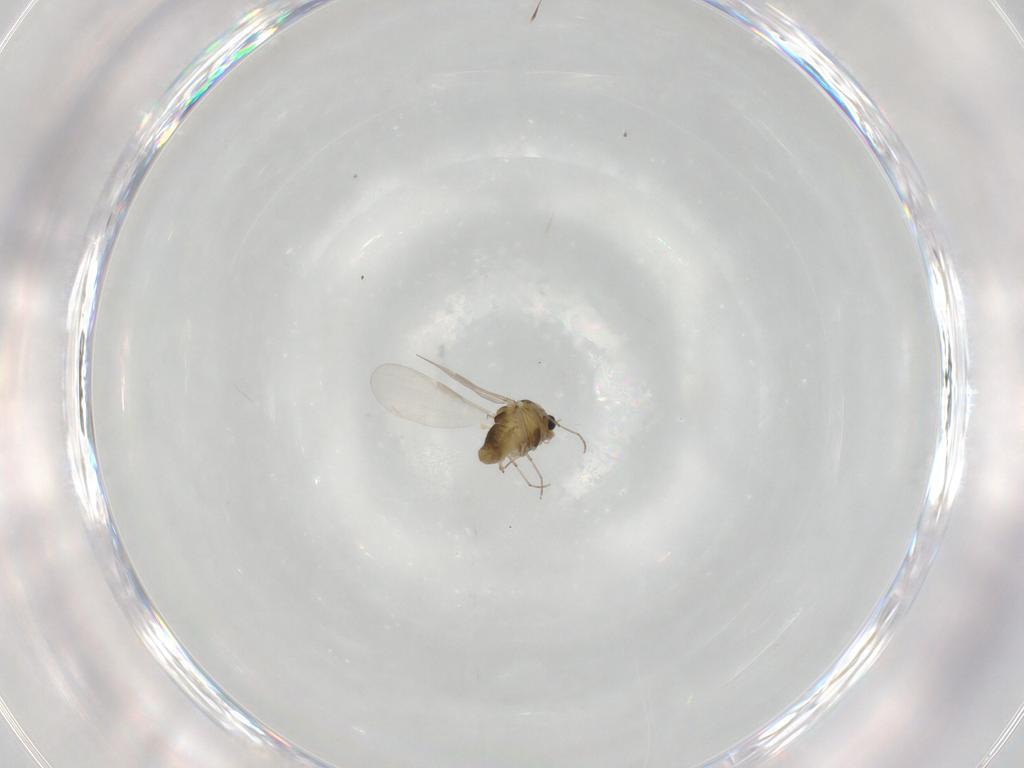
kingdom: Animalia
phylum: Arthropoda
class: Insecta
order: Diptera
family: Chironomidae
